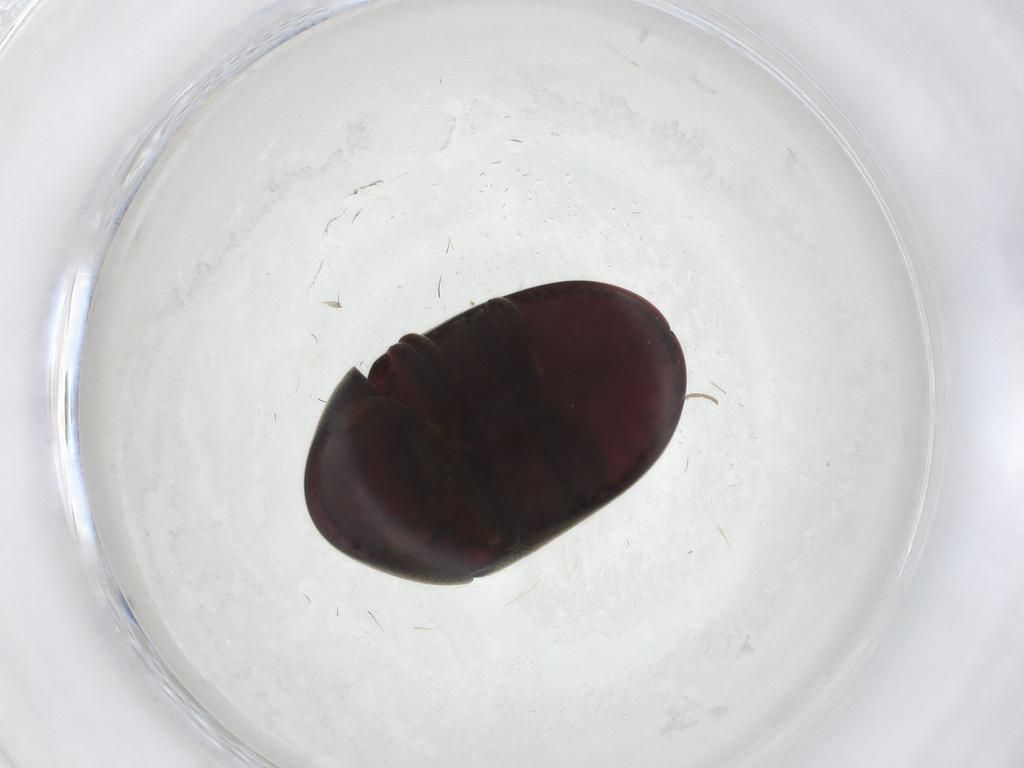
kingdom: Animalia
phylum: Arthropoda
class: Insecta
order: Coleoptera
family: Ptinidae
